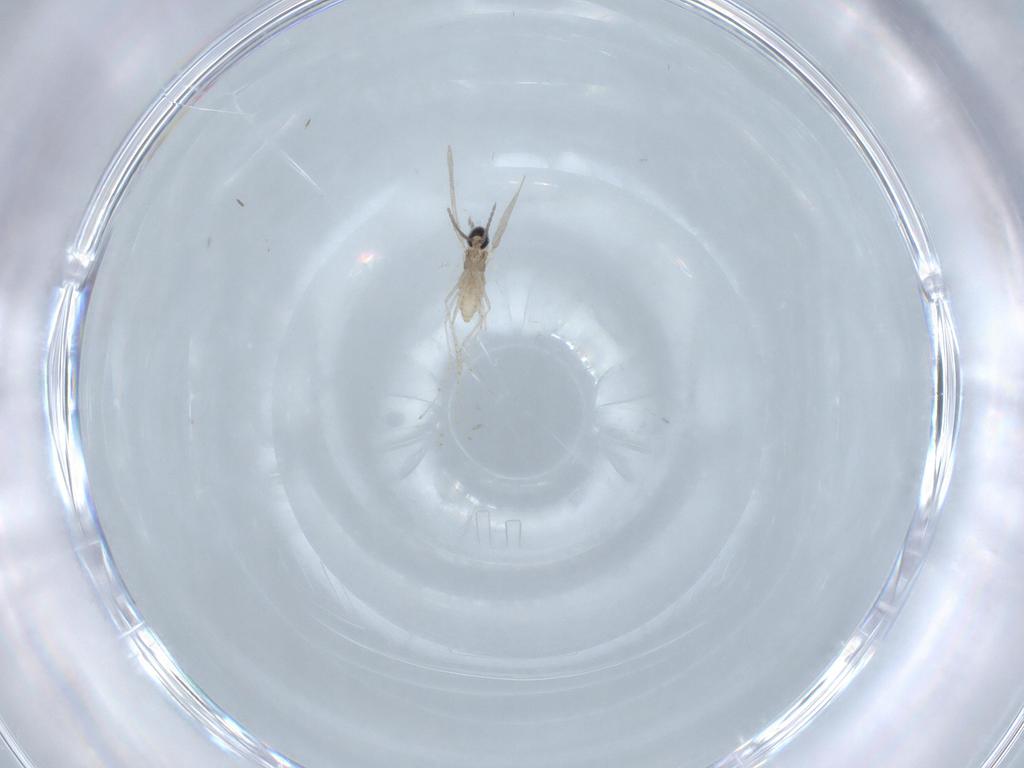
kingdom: Animalia
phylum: Arthropoda
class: Insecta
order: Diptera
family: Cecidomyiidae
